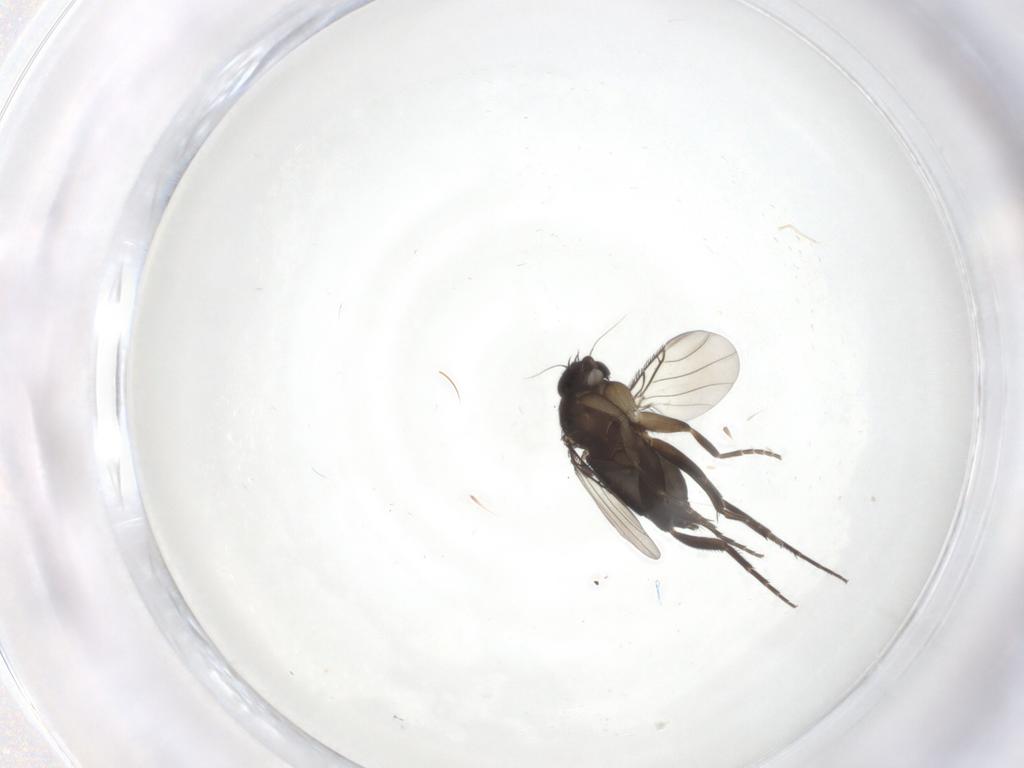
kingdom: Animalia
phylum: Arthropoda
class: Insecta
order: Diptera
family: Phoridae
